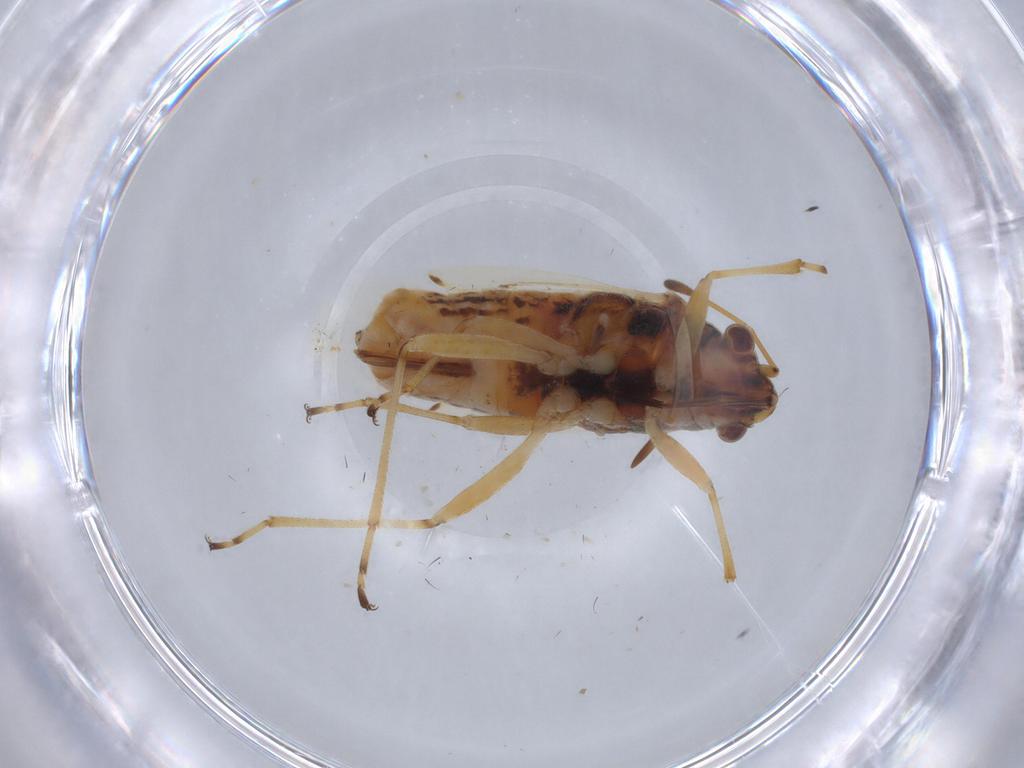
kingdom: Animalia
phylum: Arthropoda
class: Insecta
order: Hemiptera
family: Lygaeidae
